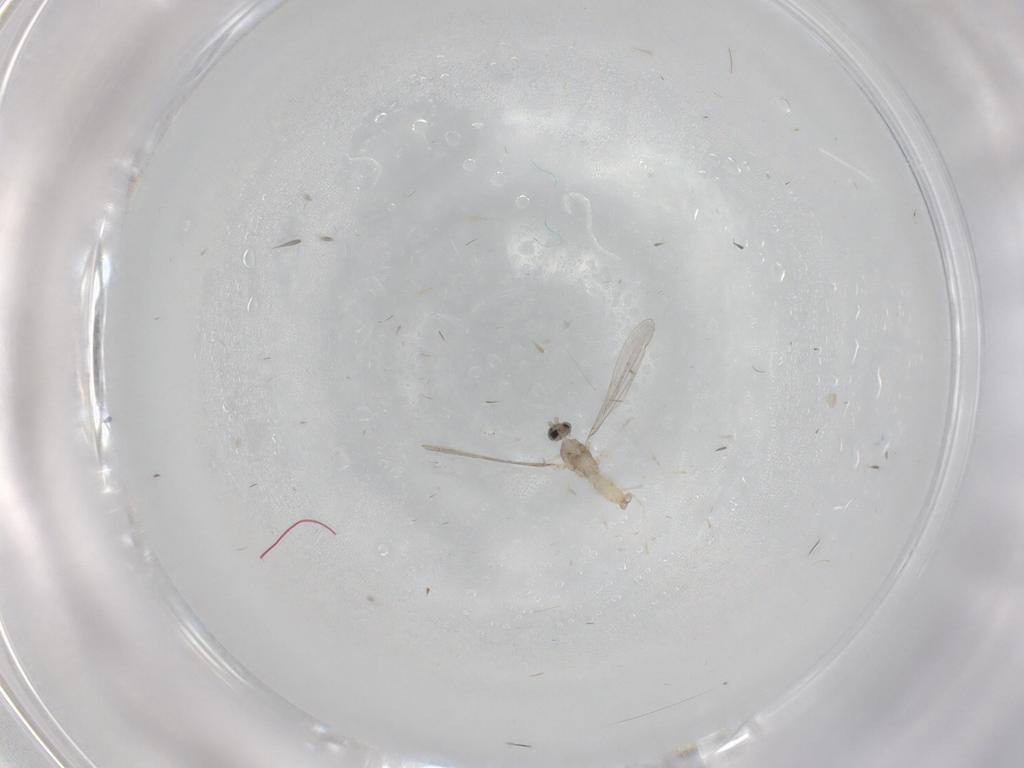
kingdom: Animalia
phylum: Arthropoda
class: Insecta
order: Diptera
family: Cecidomyiidae
